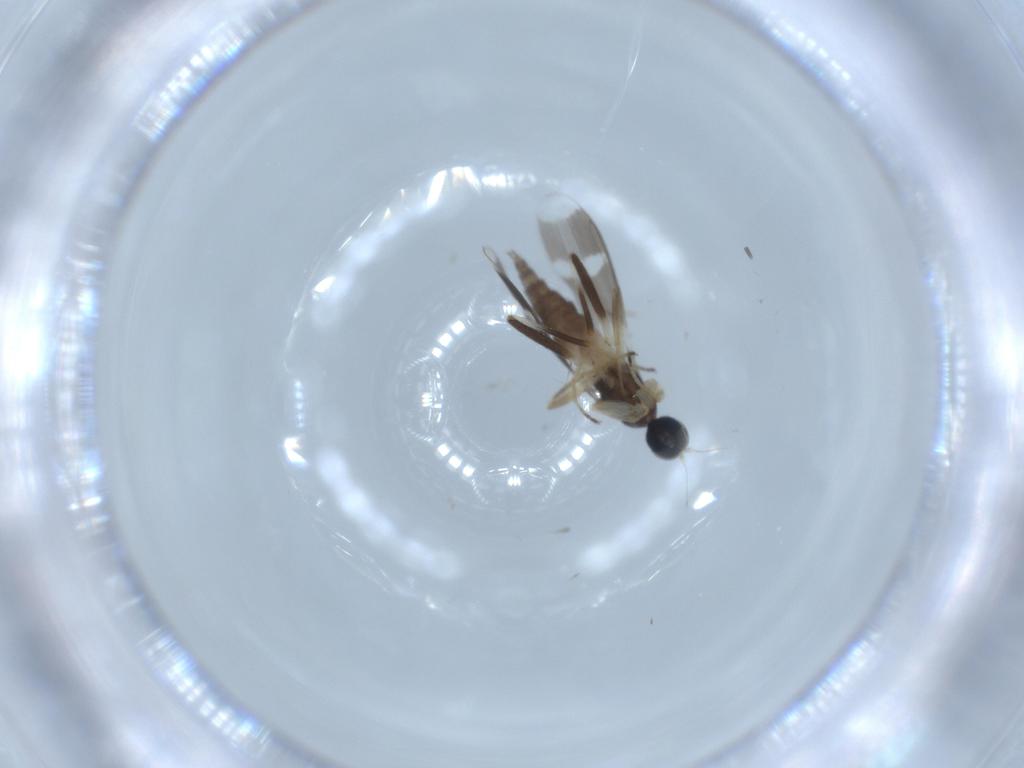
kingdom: Animalia
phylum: Arthropoda
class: Insecta
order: Diptera
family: Hybotidae
